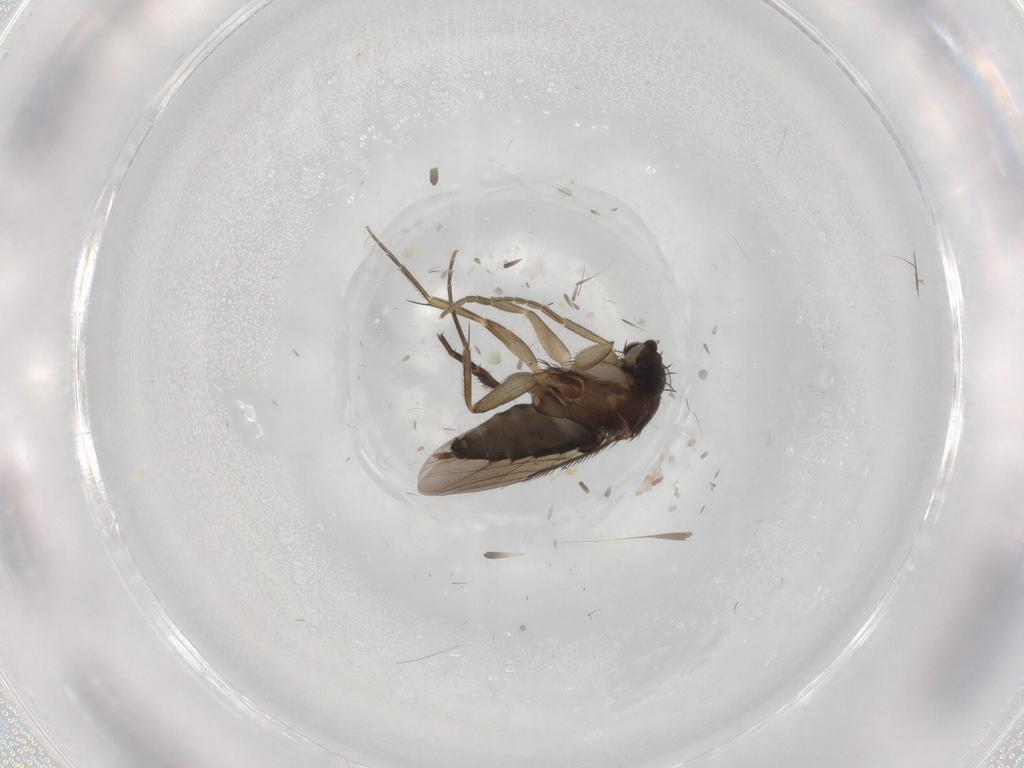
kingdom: Animalia
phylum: Arthropoda
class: Insecta
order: Diptera
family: Phoridae
